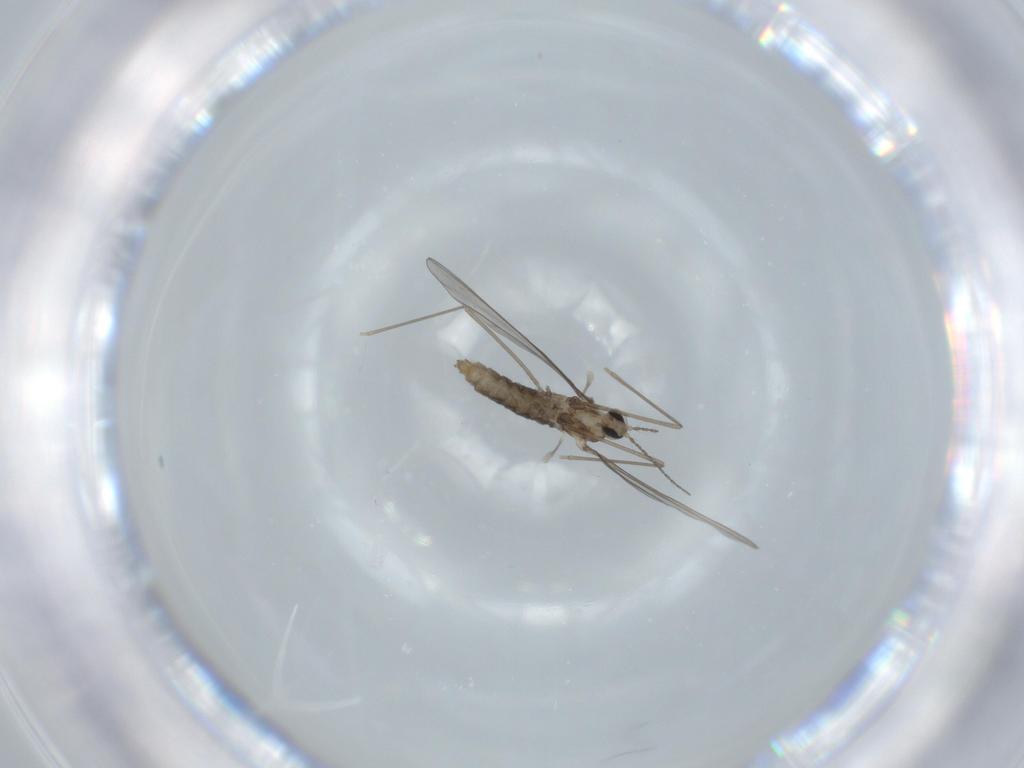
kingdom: Animalia
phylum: Arthropoda
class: Insecta
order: Diptera
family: Cecidomyiidae
